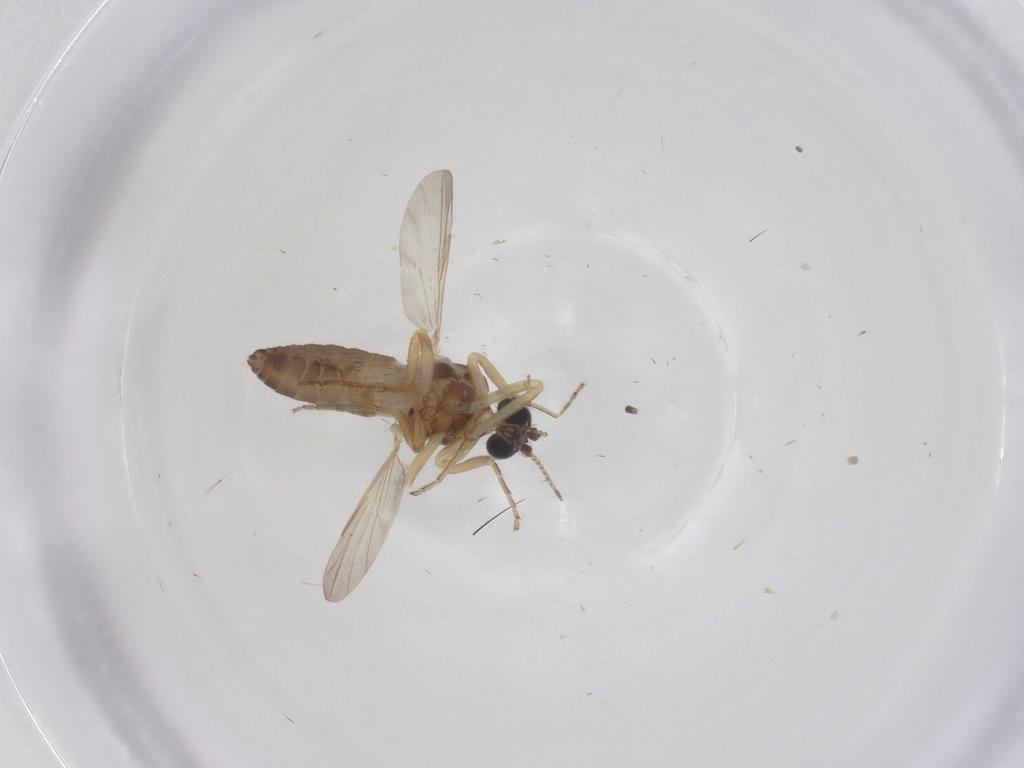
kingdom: Animalia
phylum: Arthropoda
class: Insecta
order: Diptera
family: Ceratopogonidae
